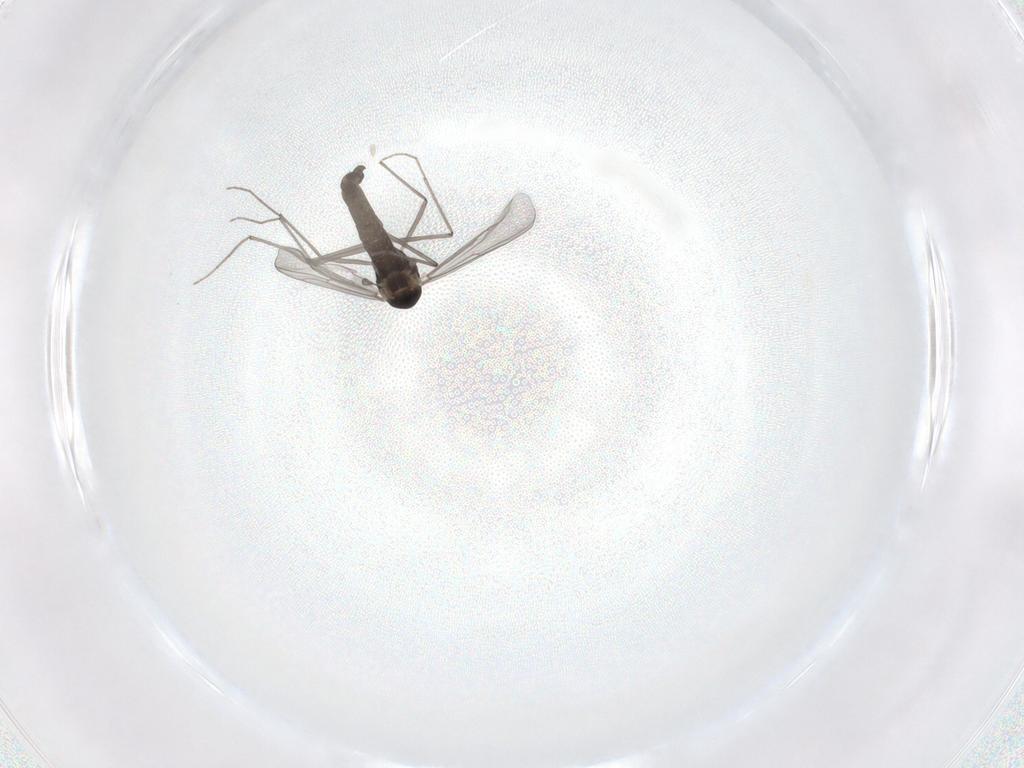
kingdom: Animalia
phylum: Arthropoda
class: Insecta
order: Diptera
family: Chironomidae
